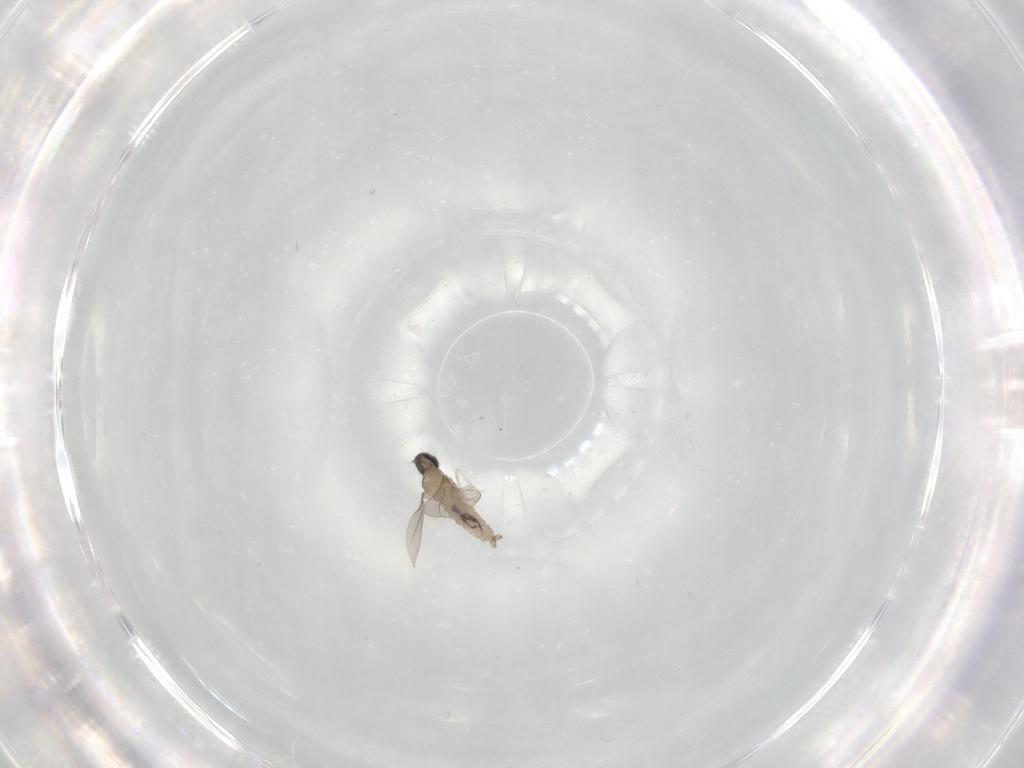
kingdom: Animalia
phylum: Arthropoda
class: Insecta
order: Diptera
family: Cecidomyiidae
